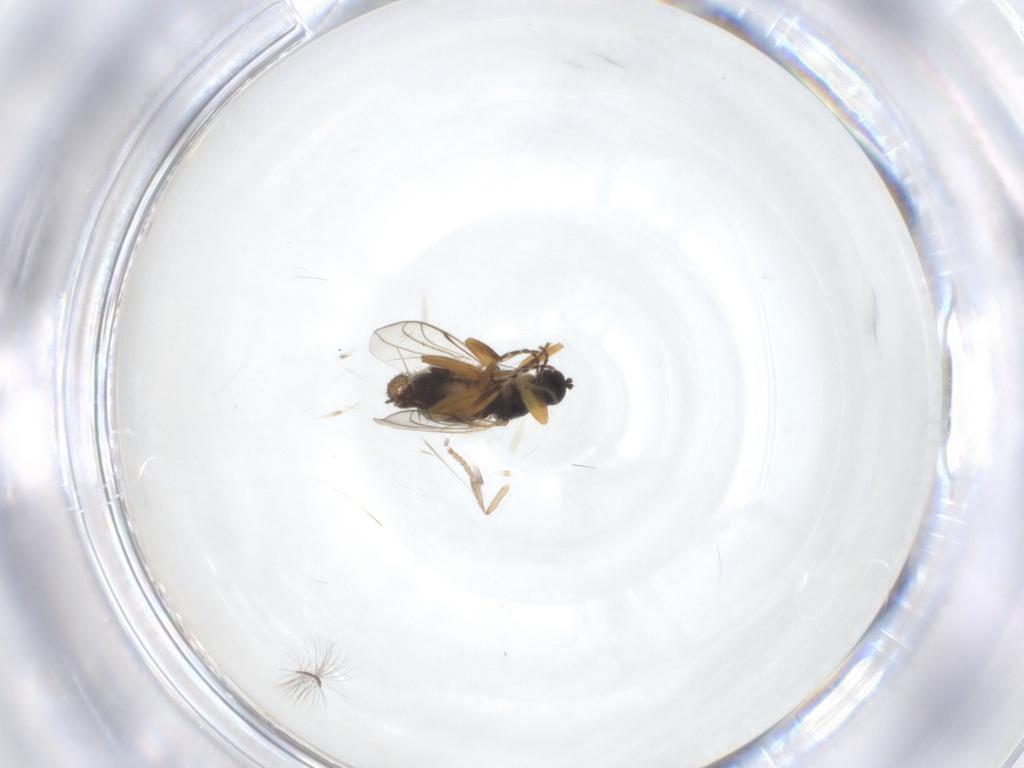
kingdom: Animalia
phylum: Arthropoda
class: Insecta
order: Diptera
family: Hybotidae
